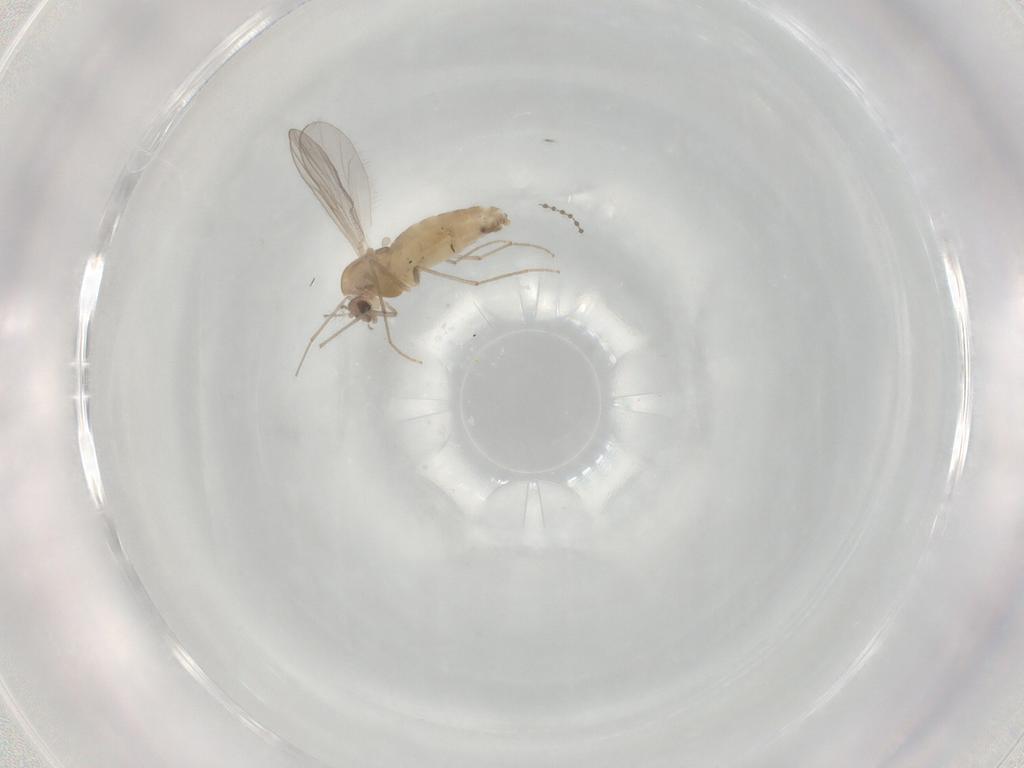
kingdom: Animalia
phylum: Arthropoda
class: Insecta
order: Diptera
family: Chironomidae
